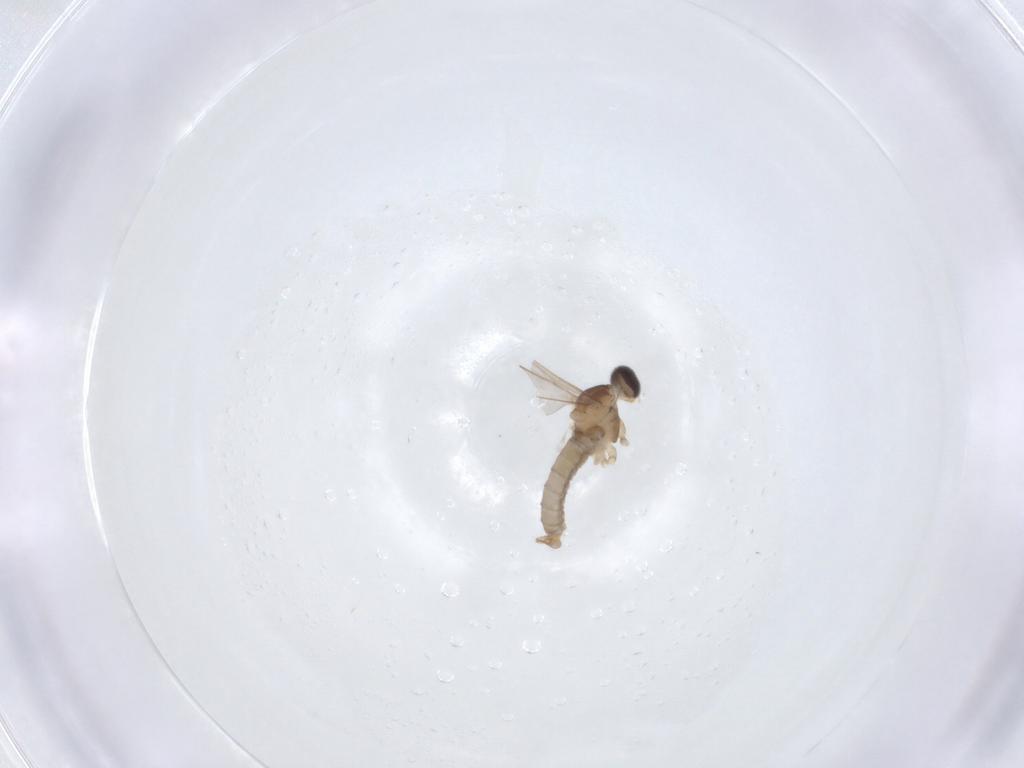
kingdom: Animalia
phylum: Arthropoda
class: Insecta
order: Diptera
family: Cecidomyiidae
